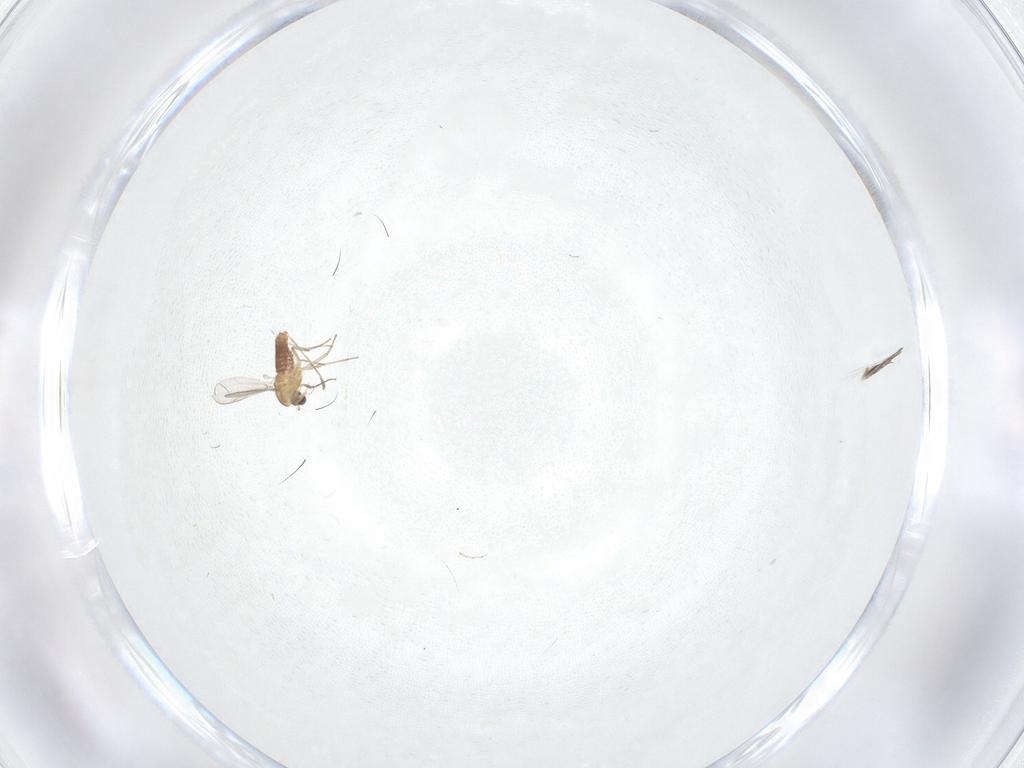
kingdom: Animalia
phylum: Arthropoda
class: Insecta
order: Diptera
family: Chironomidae
